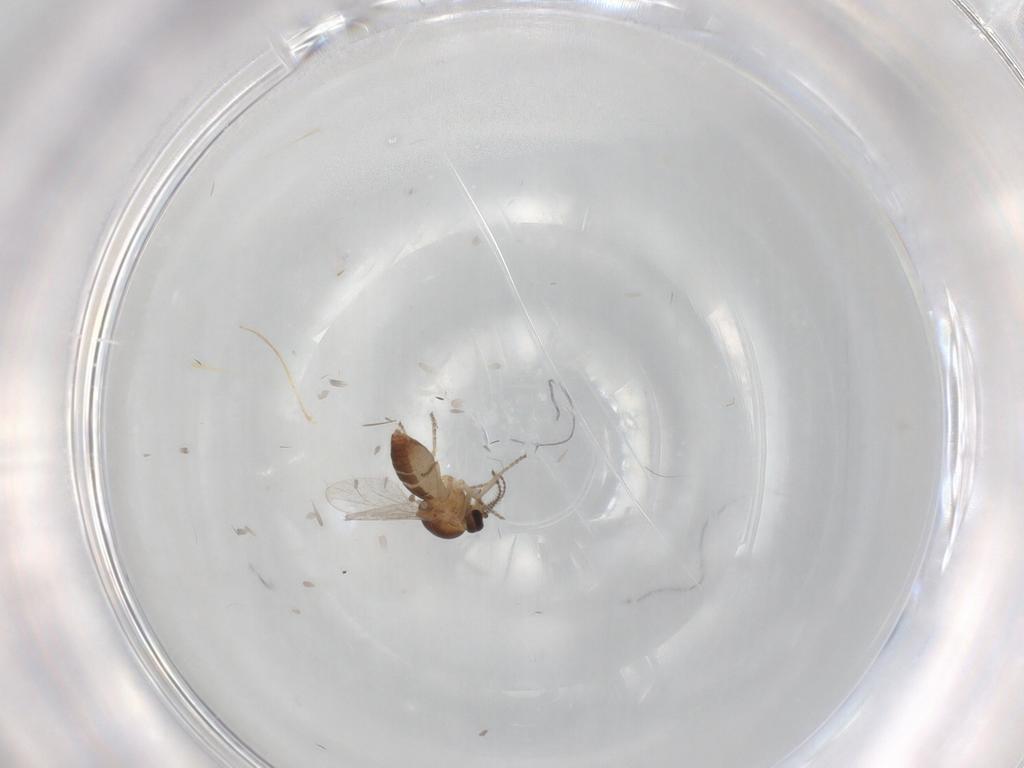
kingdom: Animalia
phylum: Arthropoda
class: Insecta
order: Diptera
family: Ceratopogonidae
